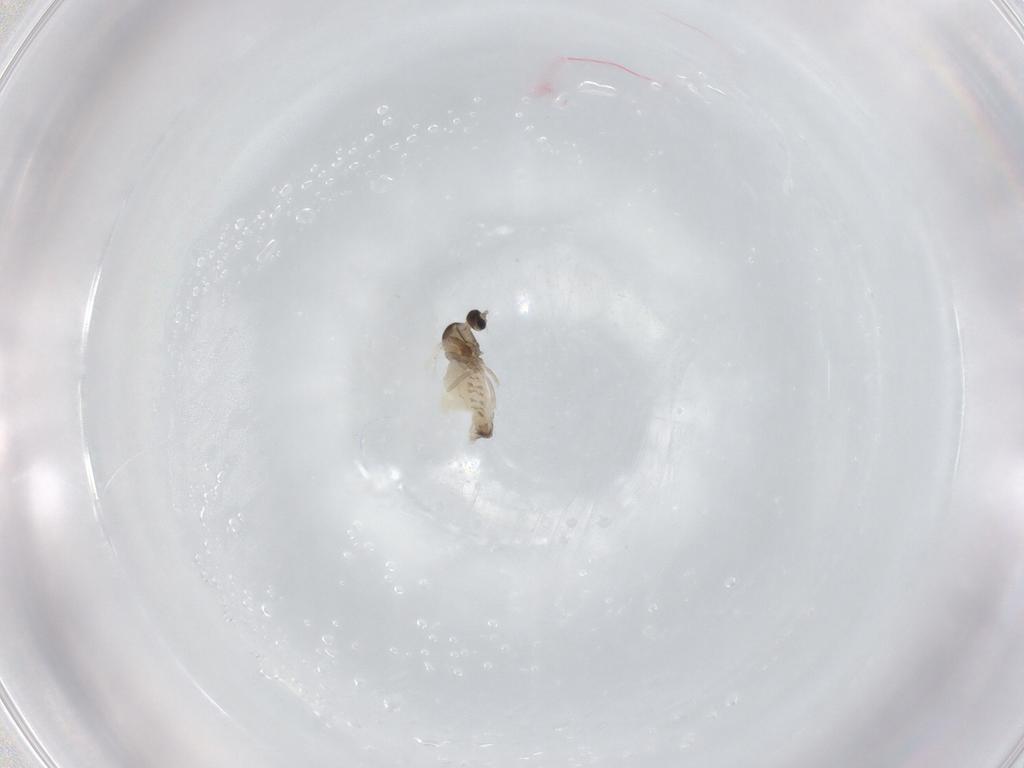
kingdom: Animalia
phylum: Arthropoda
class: Insecta
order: Diptera
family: Cecidomyiidae
